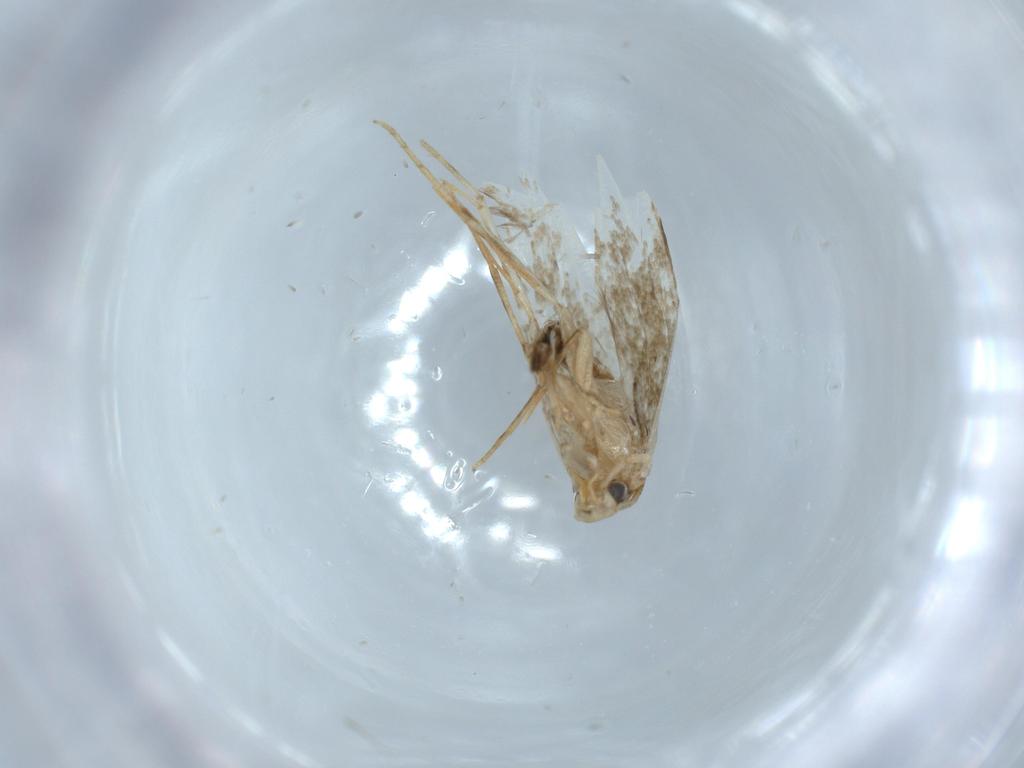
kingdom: Animalia
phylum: Arthropoda
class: Insecta
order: Lepidoptera
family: Tineidae
